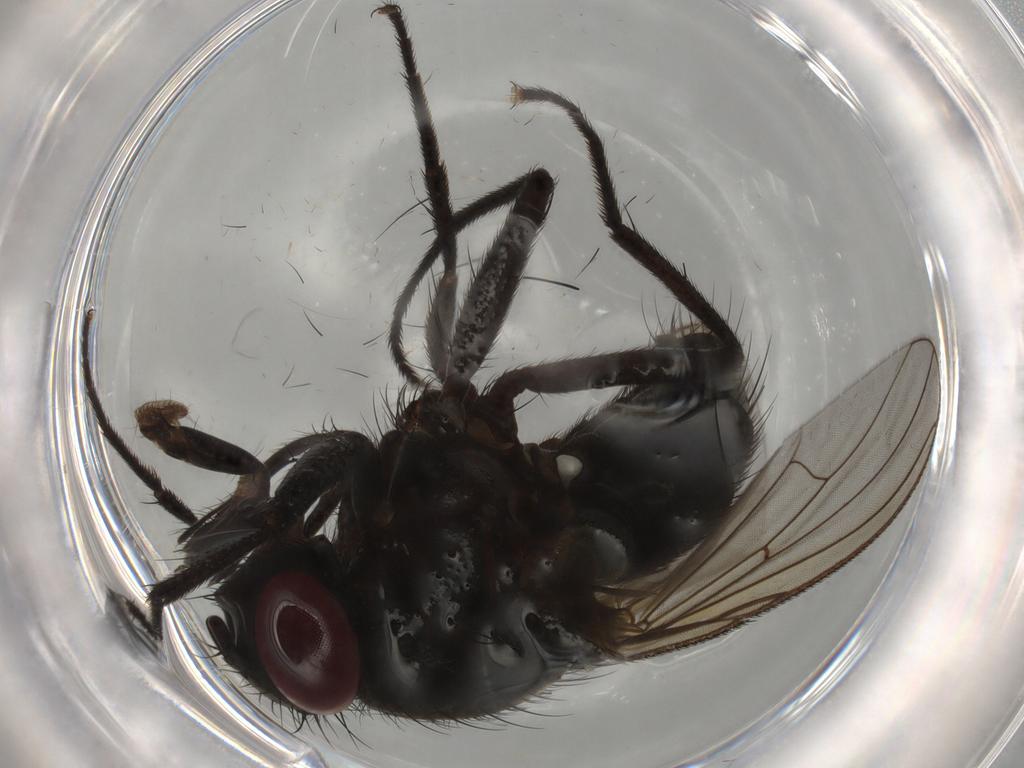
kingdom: Animalia
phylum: Arthropoda
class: Insecta
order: Diptera
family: Muscidae
